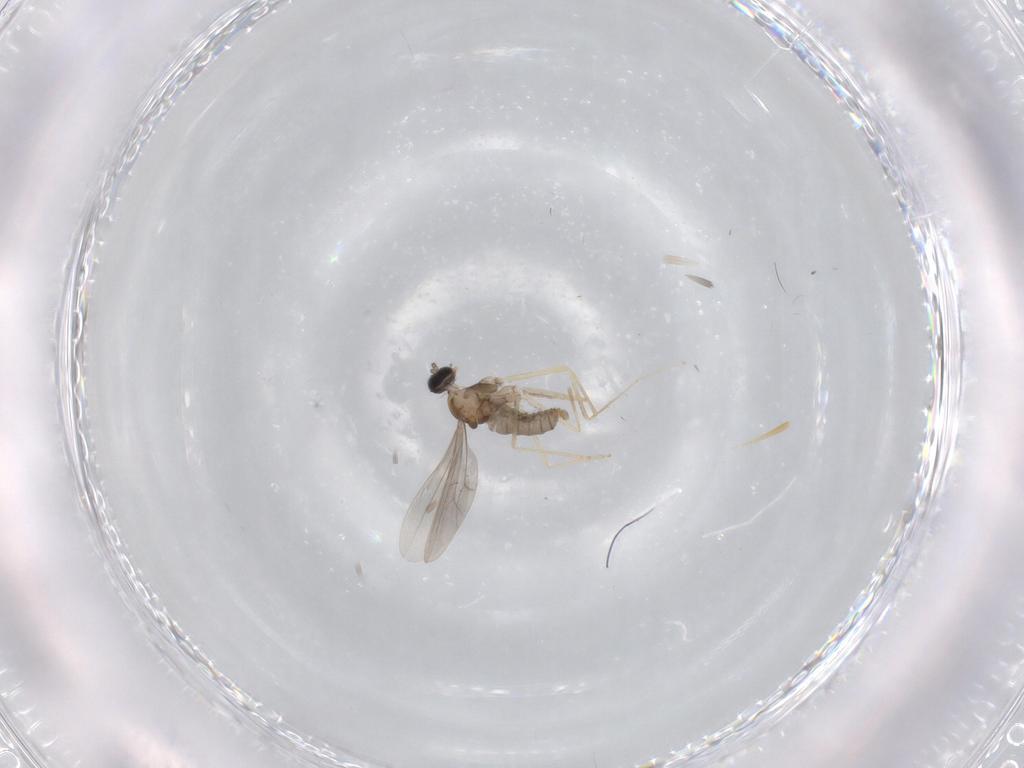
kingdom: Animalia
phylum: Arthropoda
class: Insecta
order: Diptera
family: Cecidomyiidae
